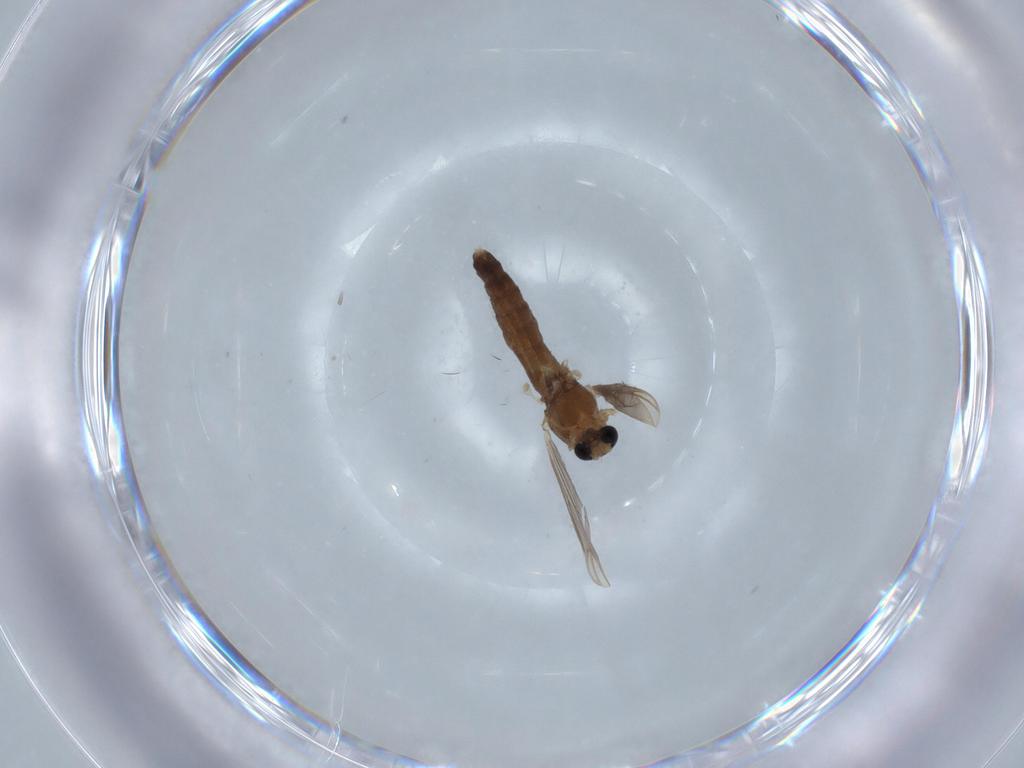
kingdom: Animalia
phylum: Arthropoda
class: Insecta
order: Diptera
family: Chironomidae
